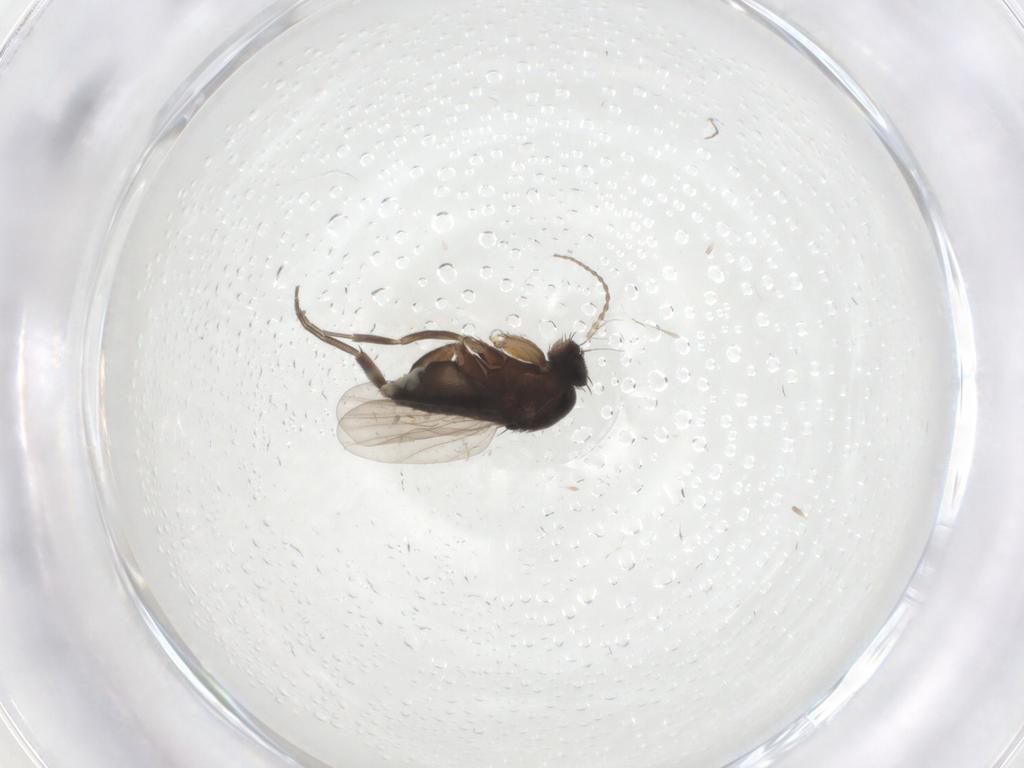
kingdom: Animalia
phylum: Arthropoda
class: Insecta
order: Diptera
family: Limoniidae
